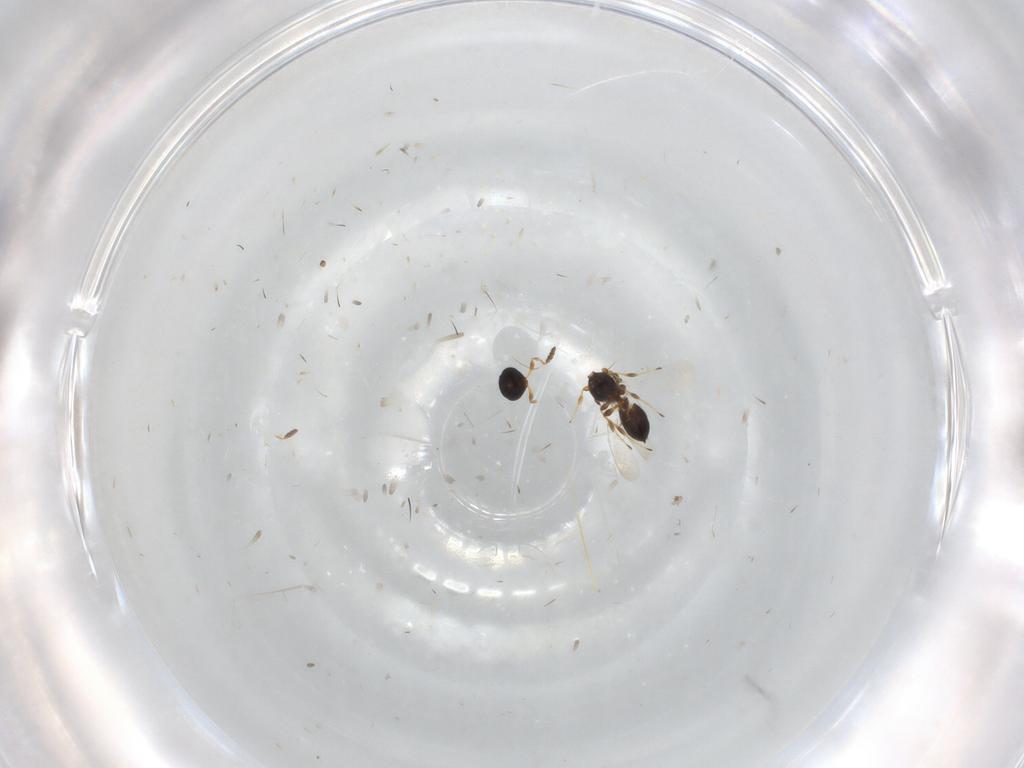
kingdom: Animalia
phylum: Arthropoda
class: Insecta
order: Hymenoptera
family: Platygastridae
